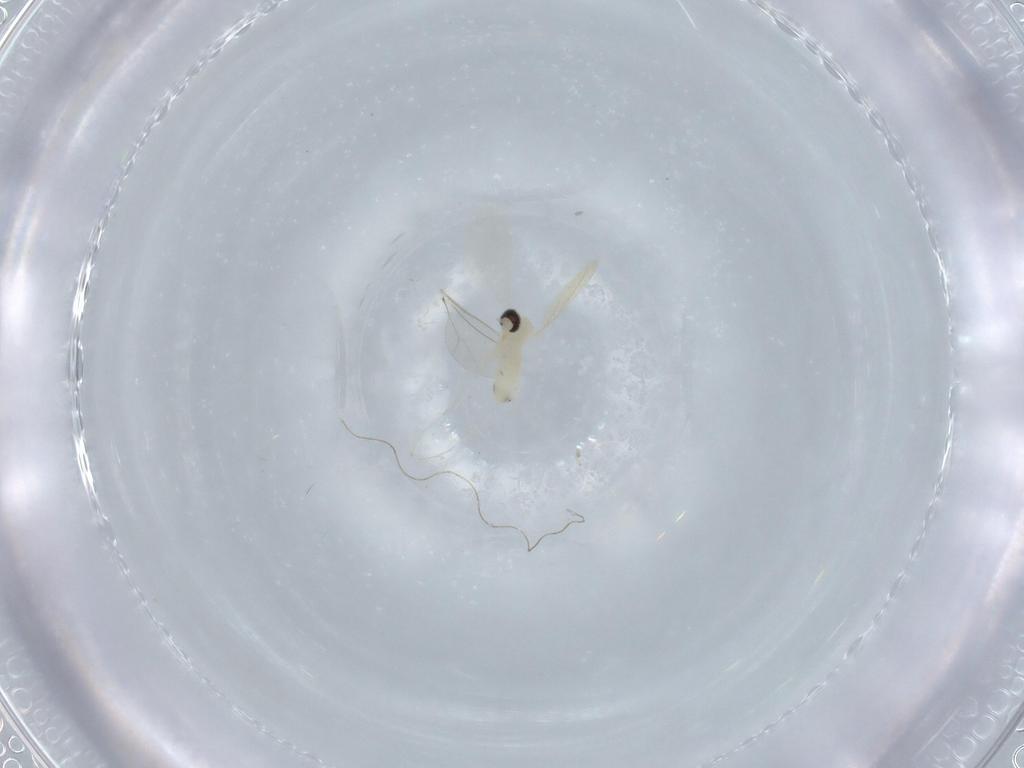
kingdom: Animalia
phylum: Arthropoda
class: Insecta
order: Diptera
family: Cecidomyiidae
